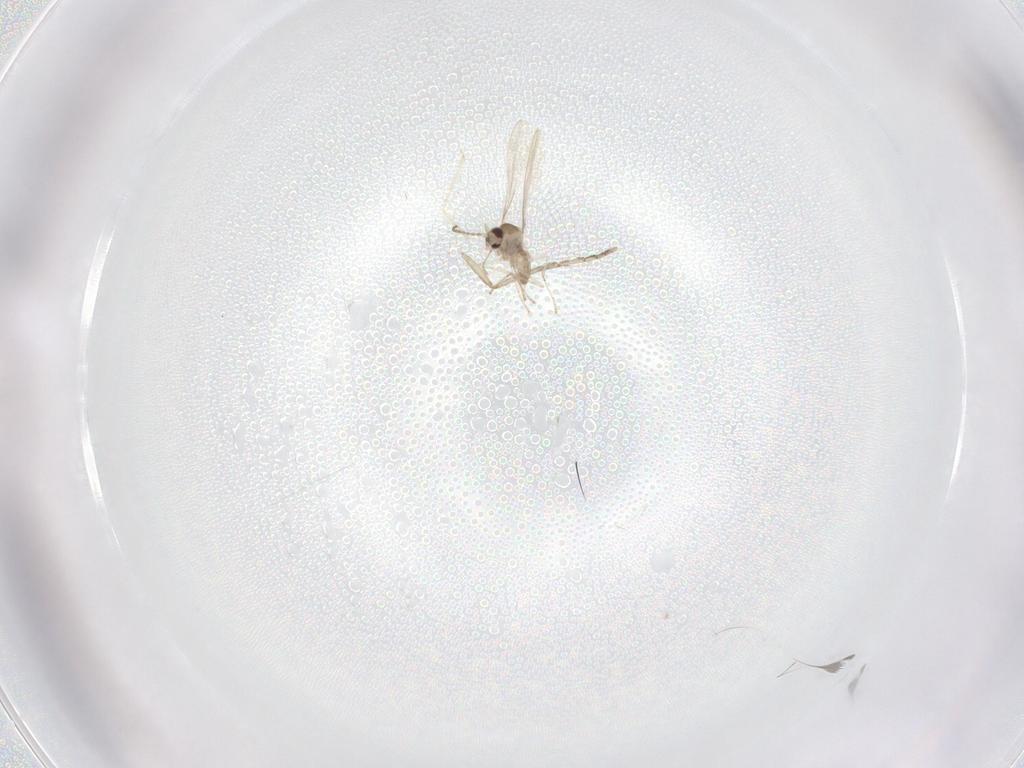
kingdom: Animalia
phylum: Arthropoda
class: Insecta
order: Diptera
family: Cecidomyiidae
